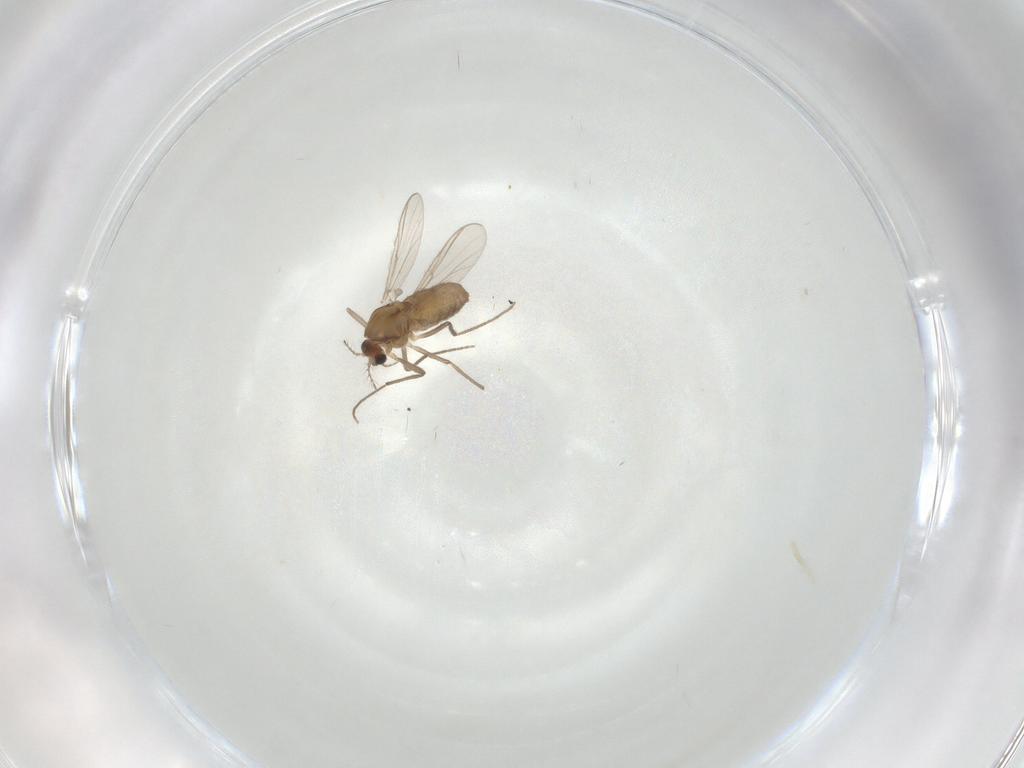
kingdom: Animalia
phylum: Arthropoda
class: Insecta
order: Diptera
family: Chironomidae
